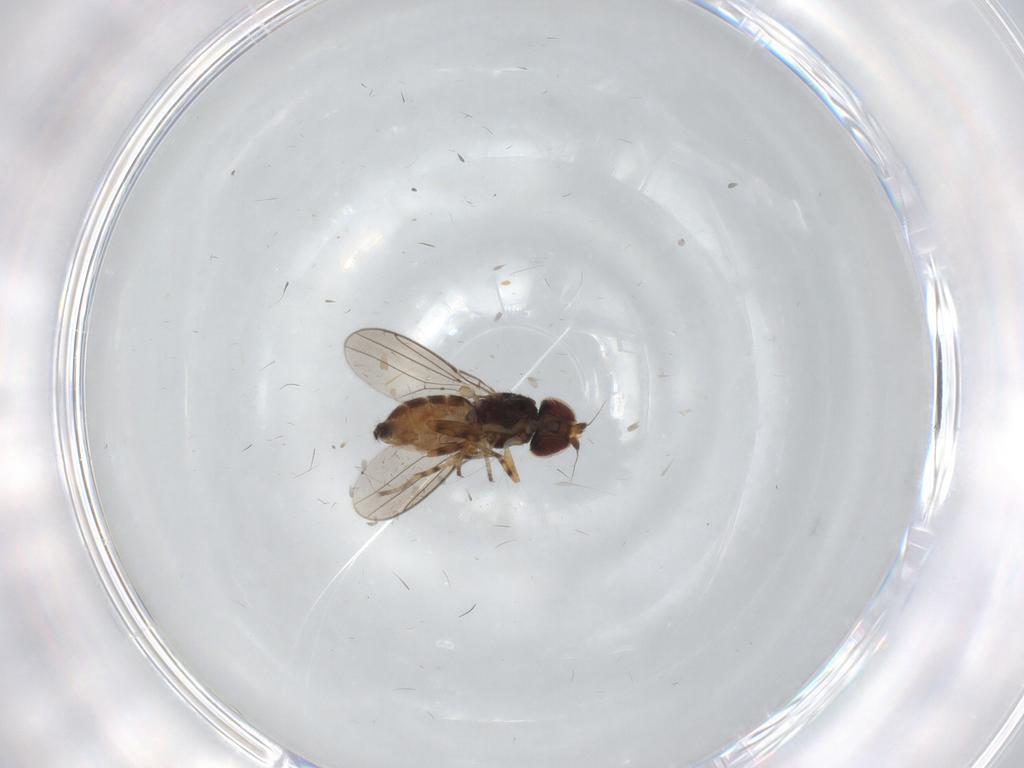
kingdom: Animalia
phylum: Arthropoda
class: Insecta
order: Diptera
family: Chloropidae
